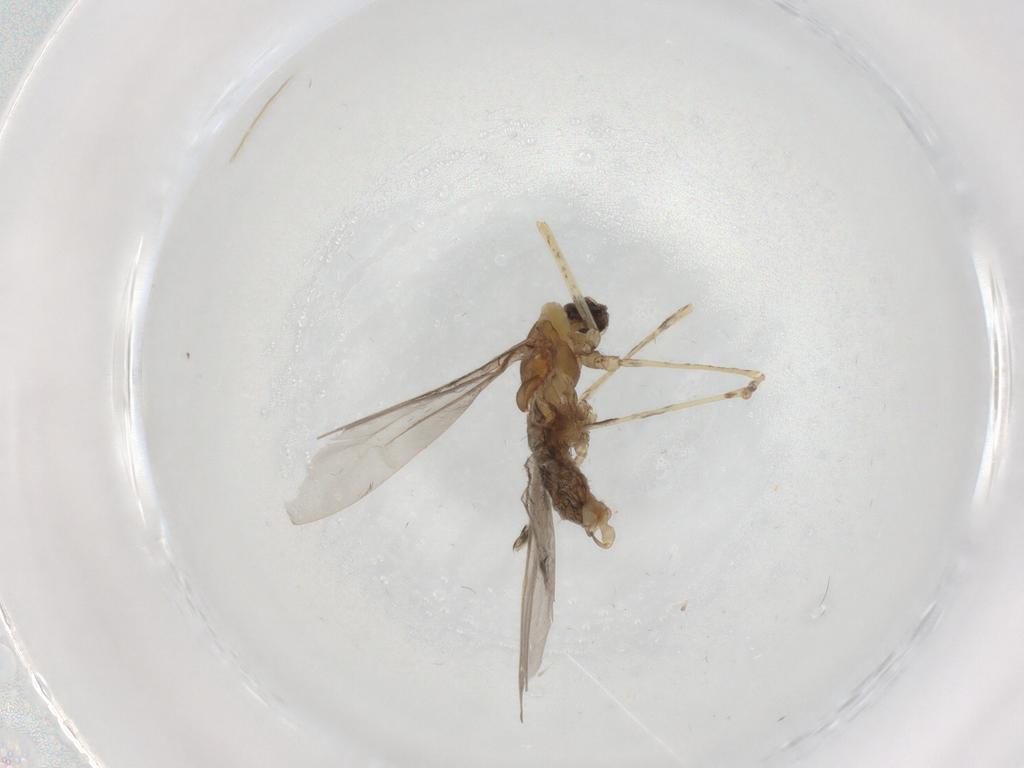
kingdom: Animalia
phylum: Arthropoda
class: Insecta
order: Diptera
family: Cecidomyiidae
